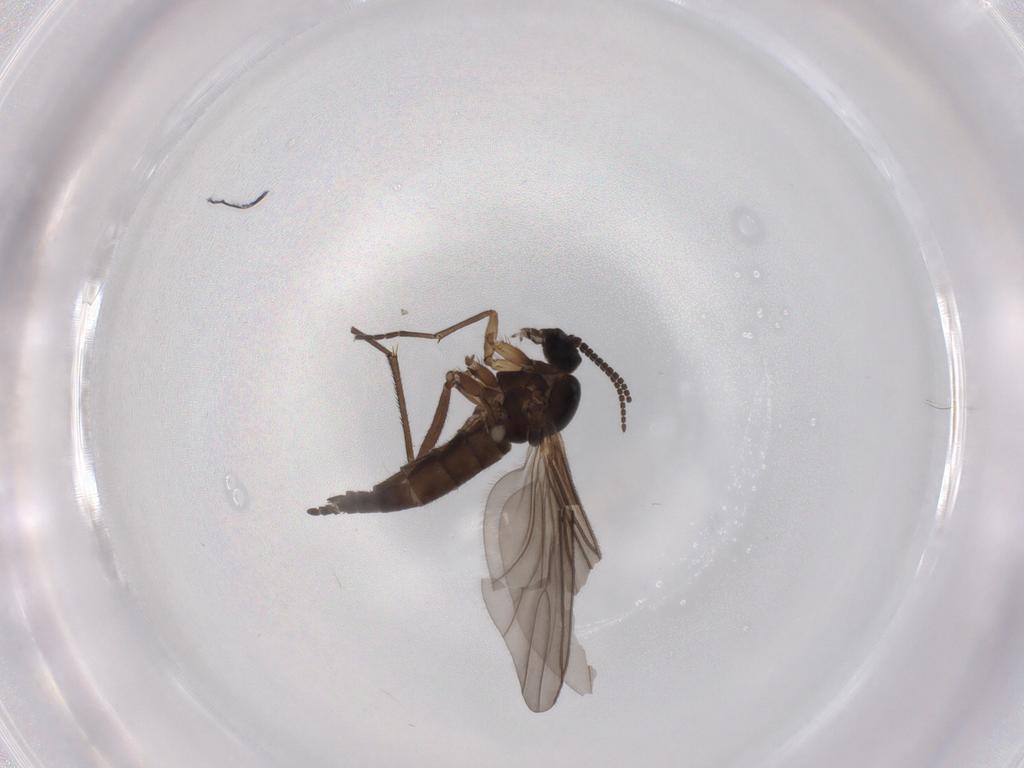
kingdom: Animalia
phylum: Arthropoda
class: Insecta
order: Diptera
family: Sciaridae
